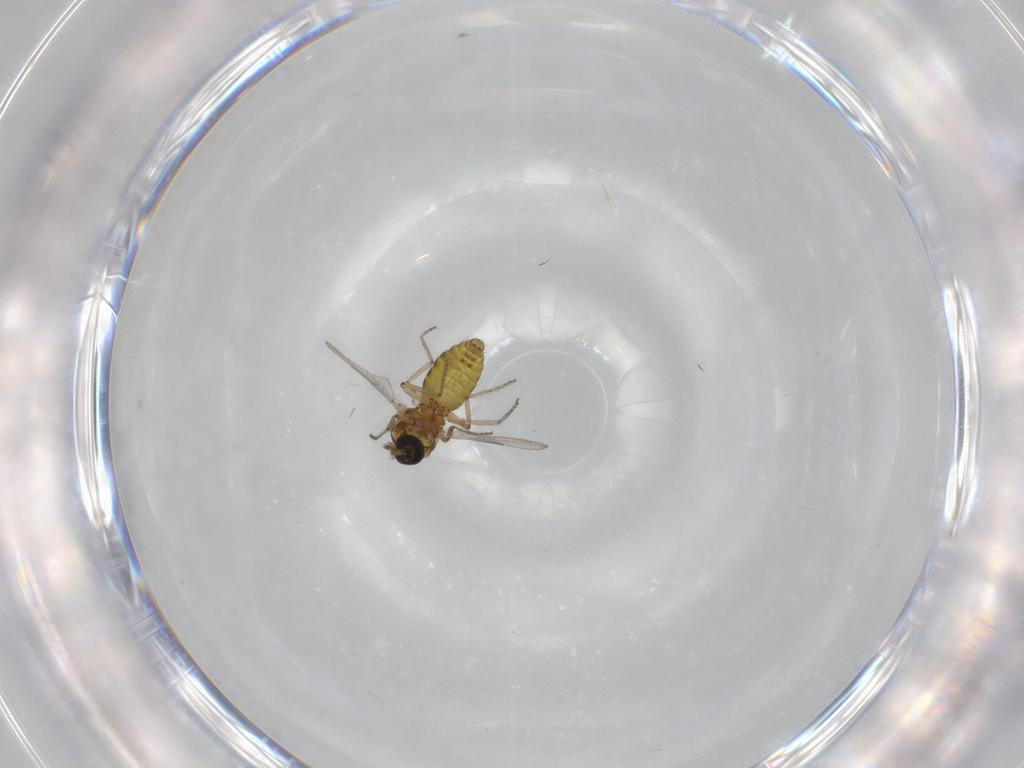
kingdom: Animalia
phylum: Arthropoda
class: Insecta
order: Diptera
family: Ceratopogonidae
